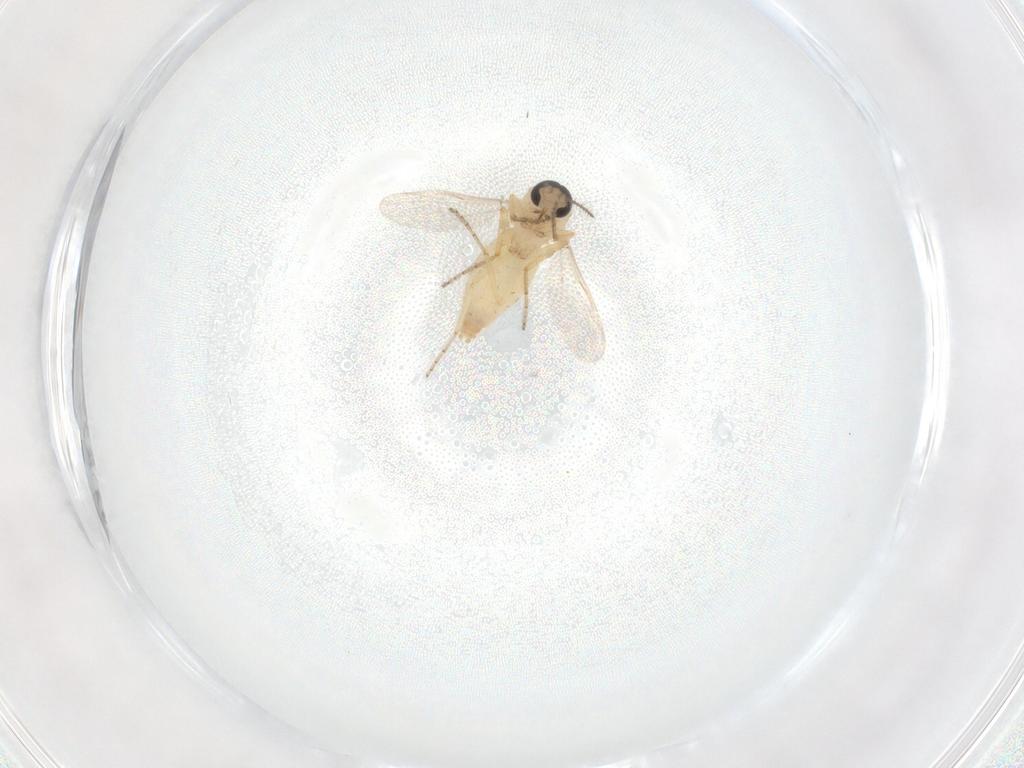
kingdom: Animalia
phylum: Arthropoda
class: Insecta
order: Diptera
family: Ceratopogonidae
